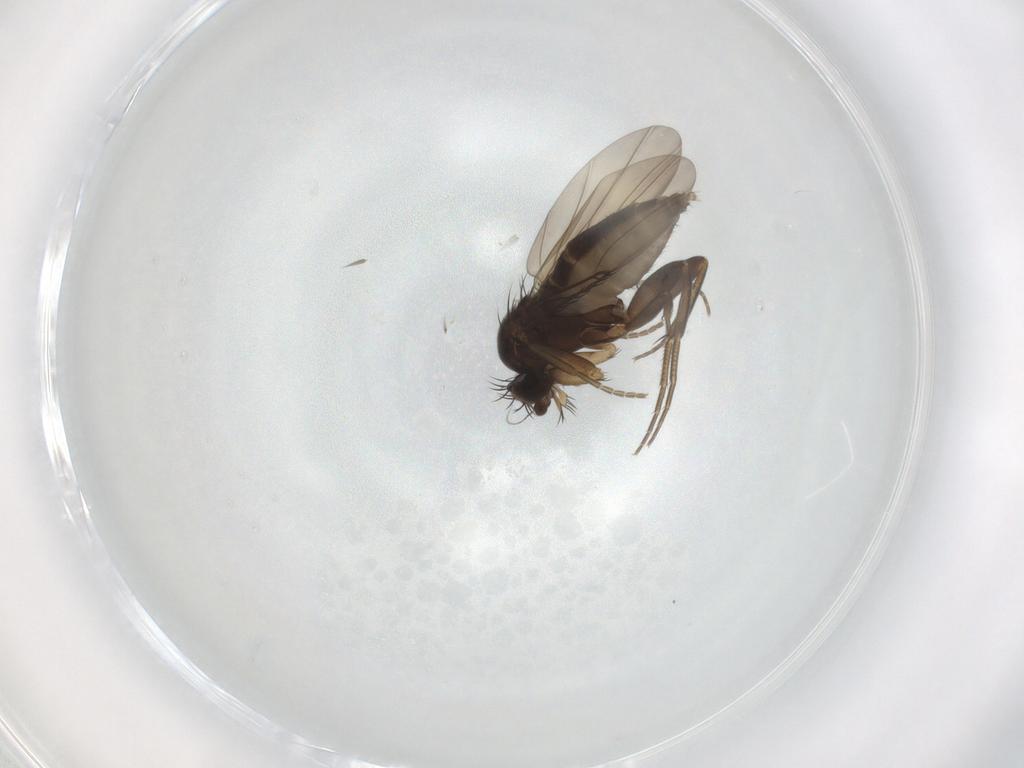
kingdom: Animalia
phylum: Arthropoda
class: Insecta
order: Diptera
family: Phoridae
